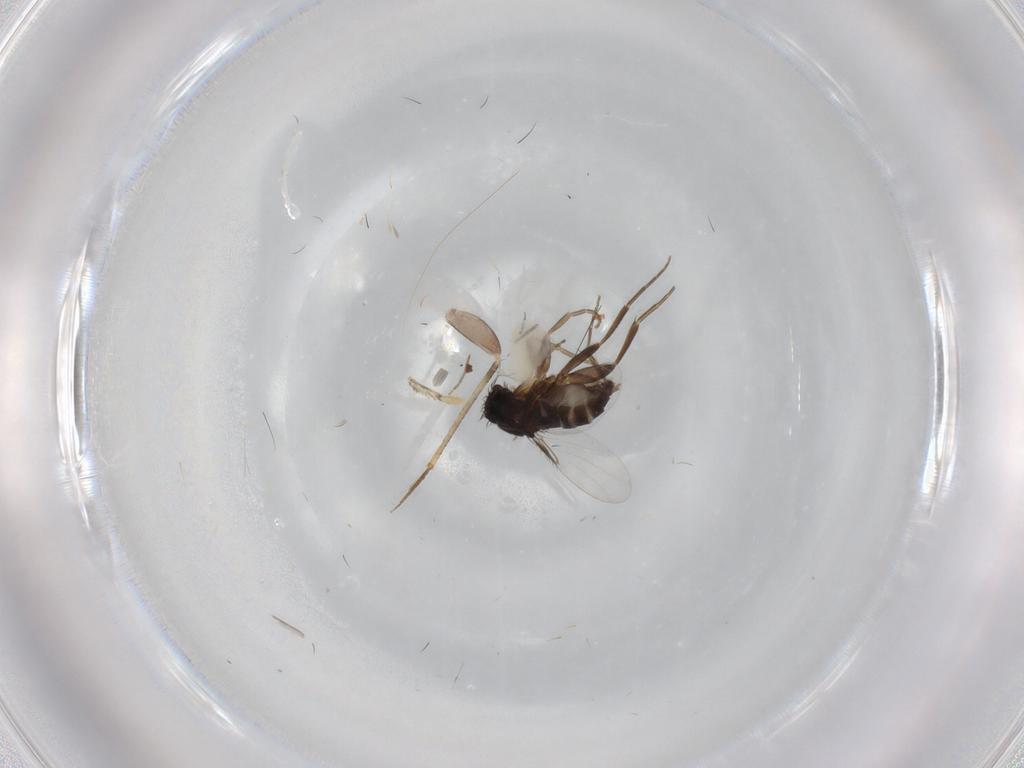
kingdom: Animalia
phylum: Arthropoda
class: Insecta
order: Diptera
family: Phoridae
